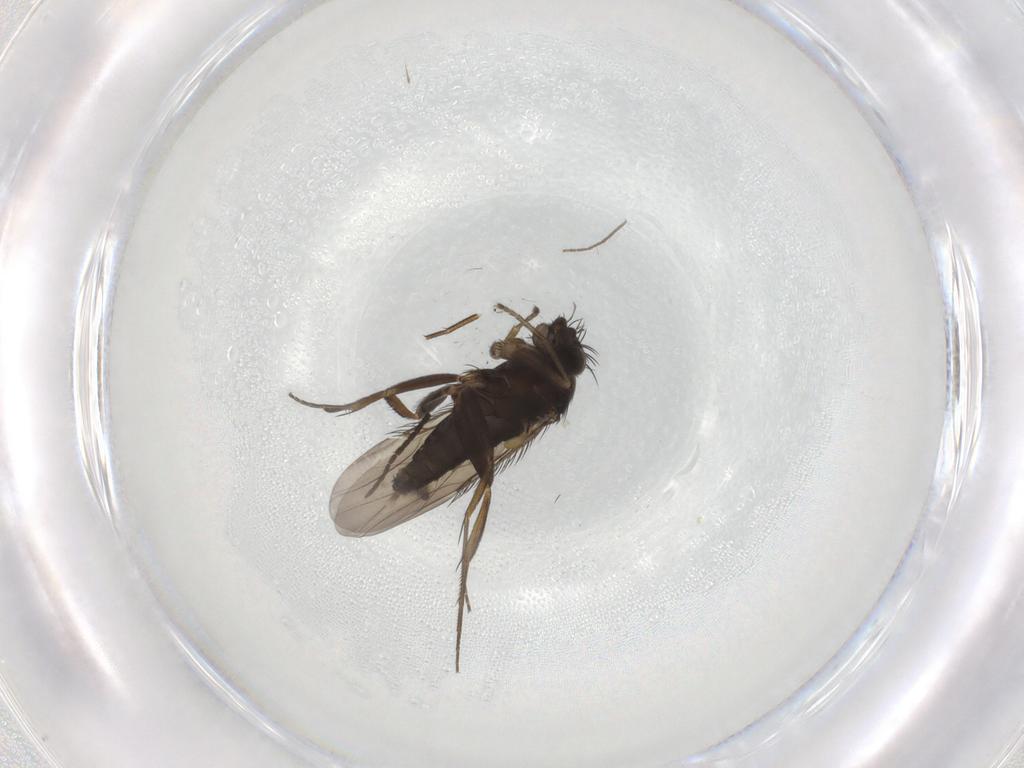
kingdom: Animalia
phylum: Arthropoda
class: Insecta
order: Diptera
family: Phoridae
